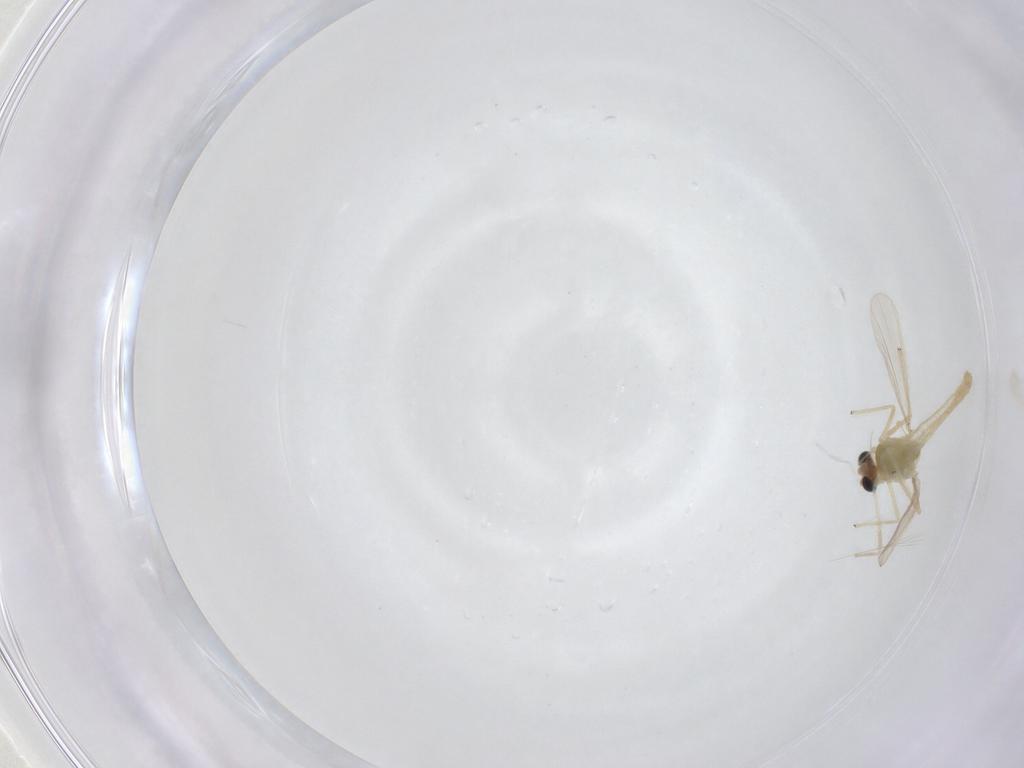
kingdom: Animalia
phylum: Arthropoda
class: Insecta
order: Diptera
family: Chironomidae
